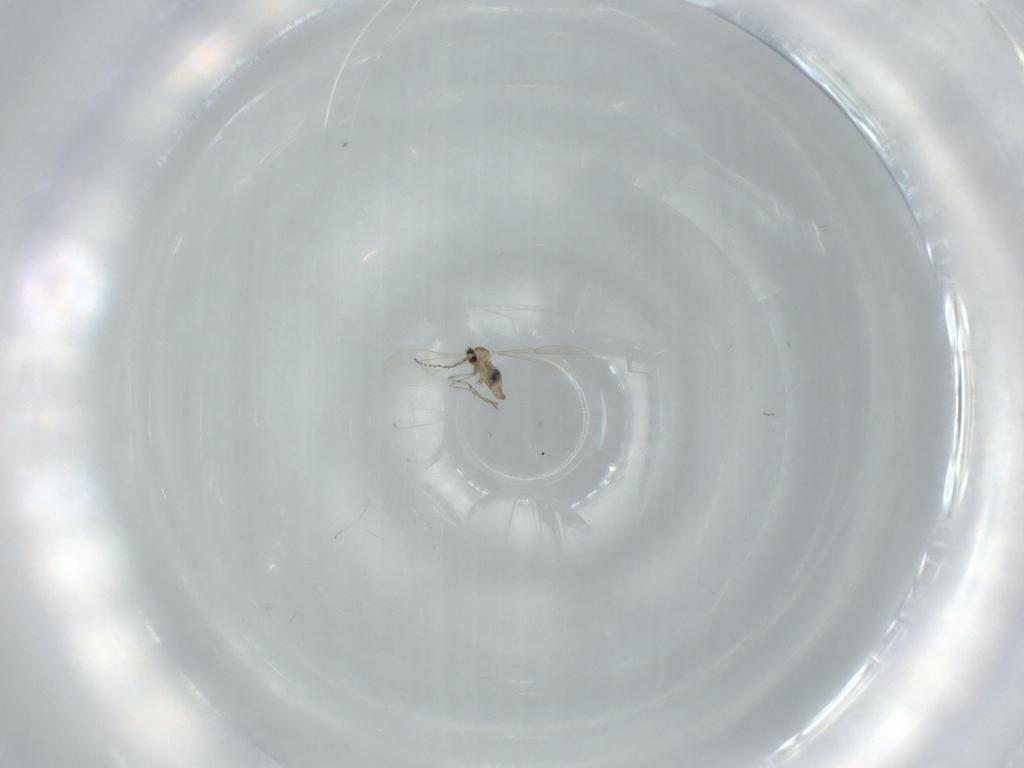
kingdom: Animalia
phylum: Arthropoda
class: Insecta
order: Diptera
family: Cecidomyiidae
